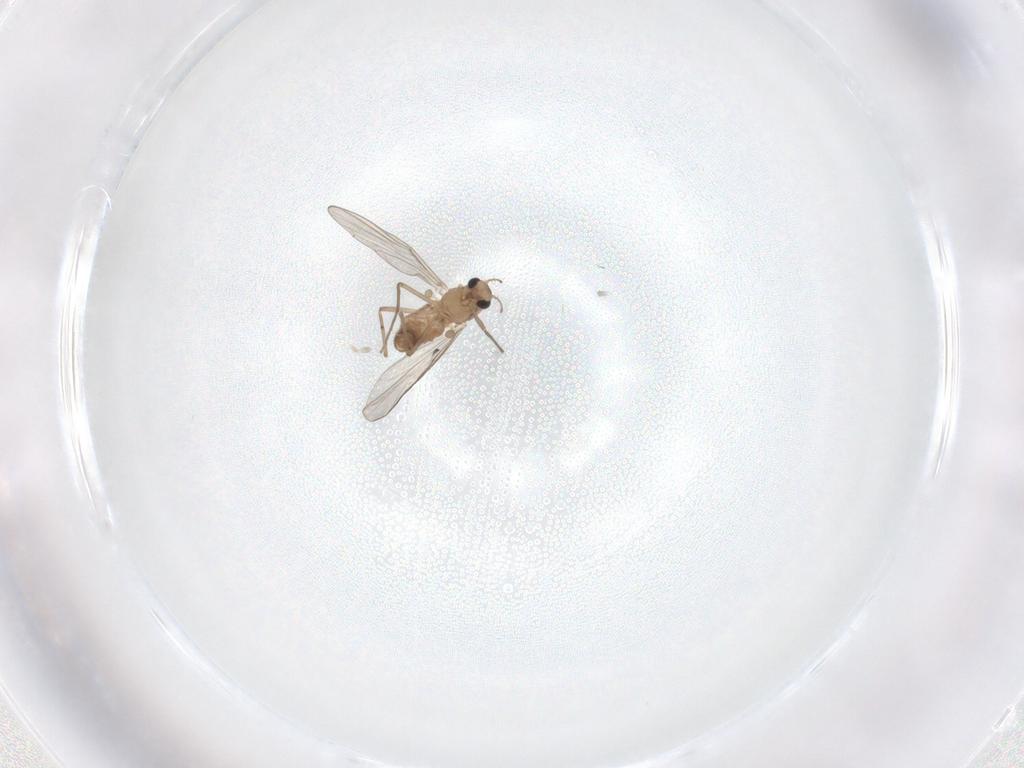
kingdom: Animalia
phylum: Arthropoda
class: Insecta
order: Diptera
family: Chironomidae
